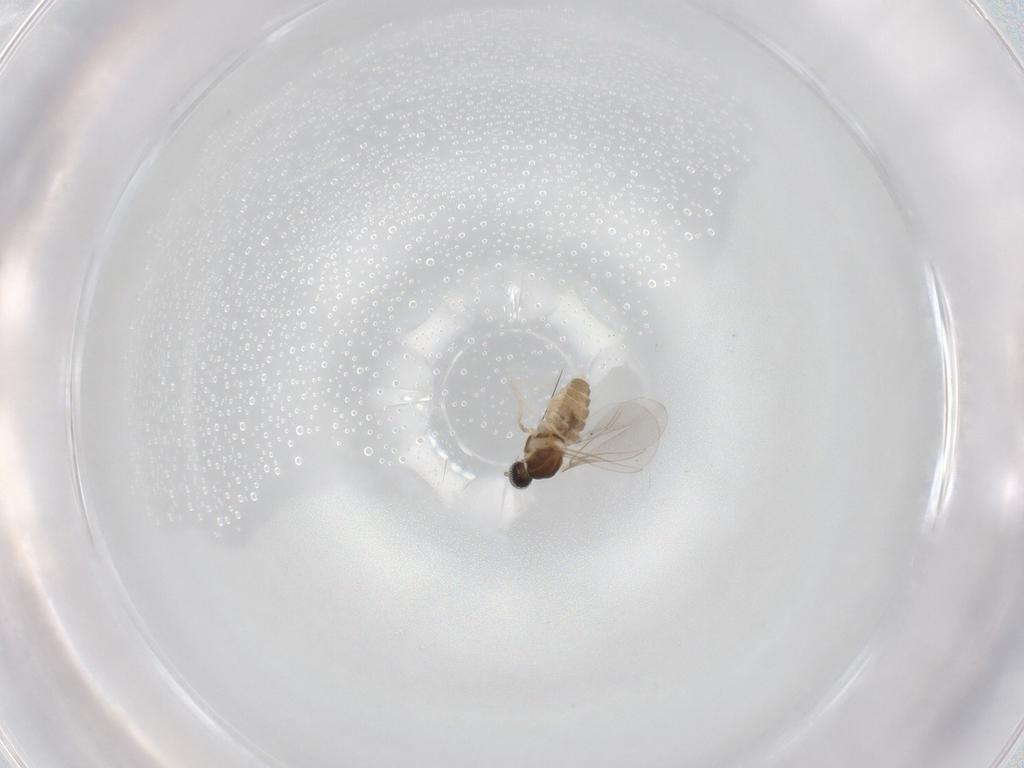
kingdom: Animalia
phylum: Arthropoda
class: Insecta
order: Diptera
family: Cecidomyiidae
